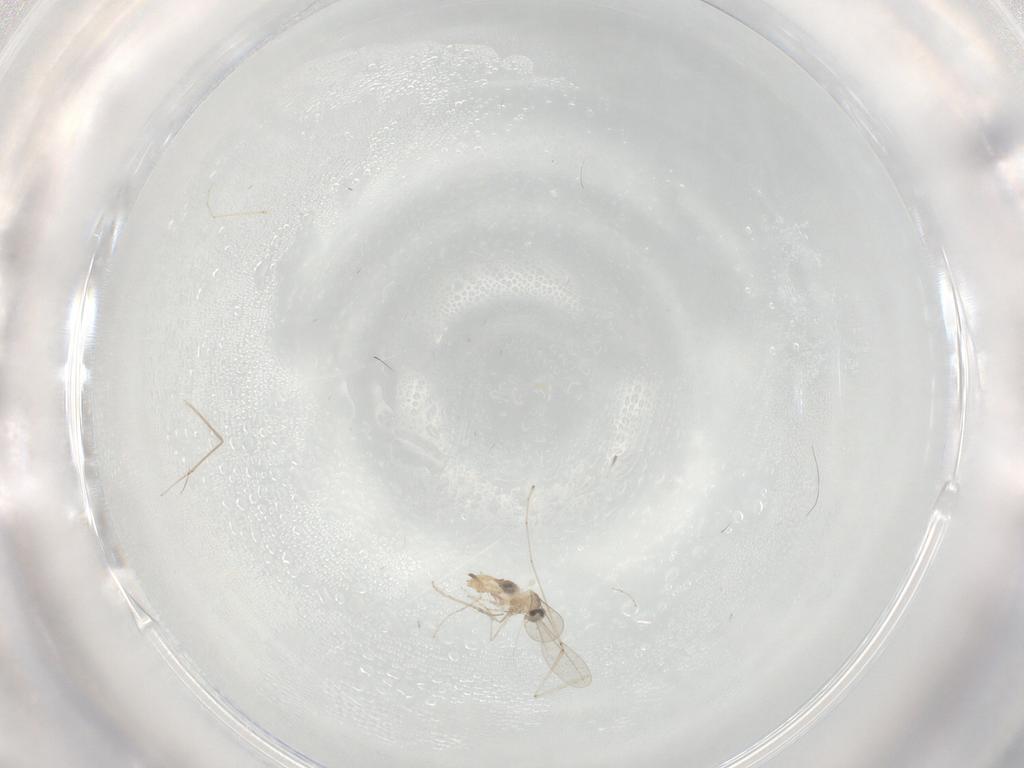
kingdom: Animalia
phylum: Arthropoda
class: Insecta
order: Diptera
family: Cecidomyiidae
